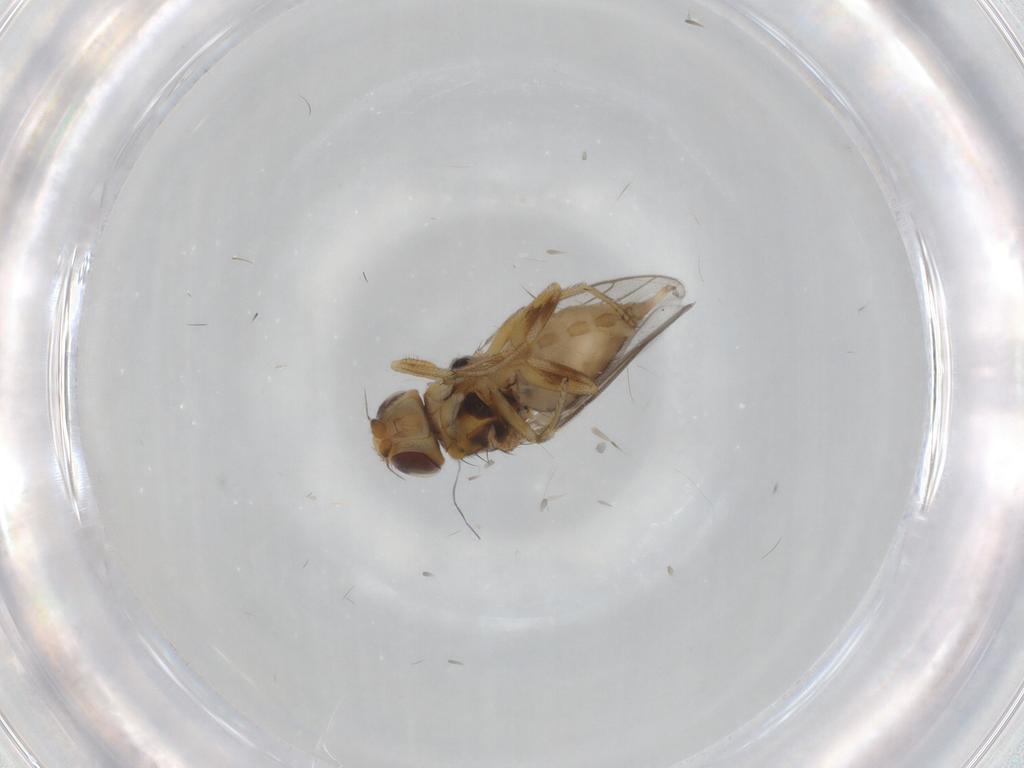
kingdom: Animalia
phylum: Arthropoda
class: Insecta
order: Diptera
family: Chloropidae
